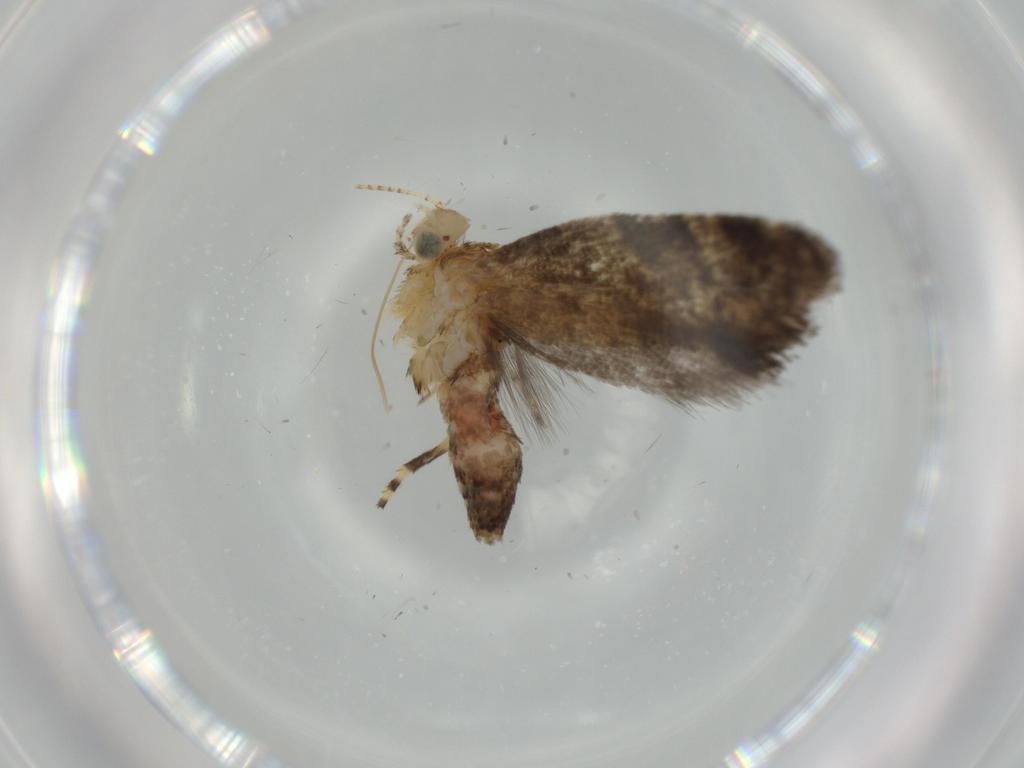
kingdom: Animalia
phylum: Arthropoda
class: Insecta
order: Lepidoptera
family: Glyphipterigidae
